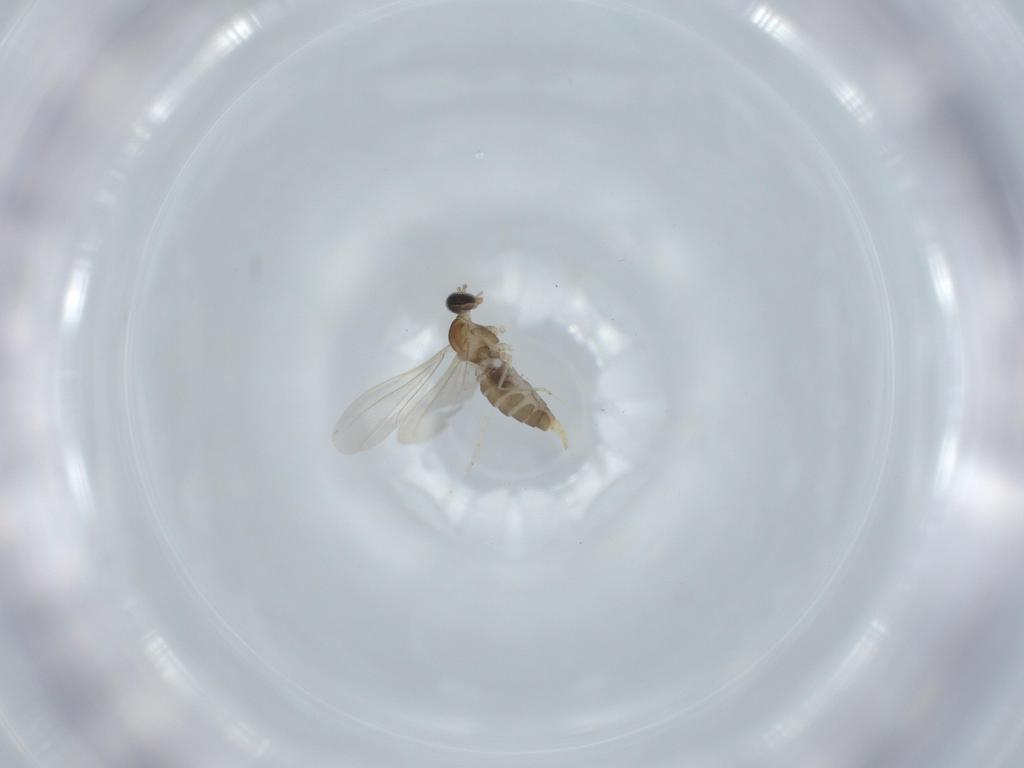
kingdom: Animalia
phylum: Arthropoda
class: Insecta
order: Diptera
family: Cecidomyiidae
